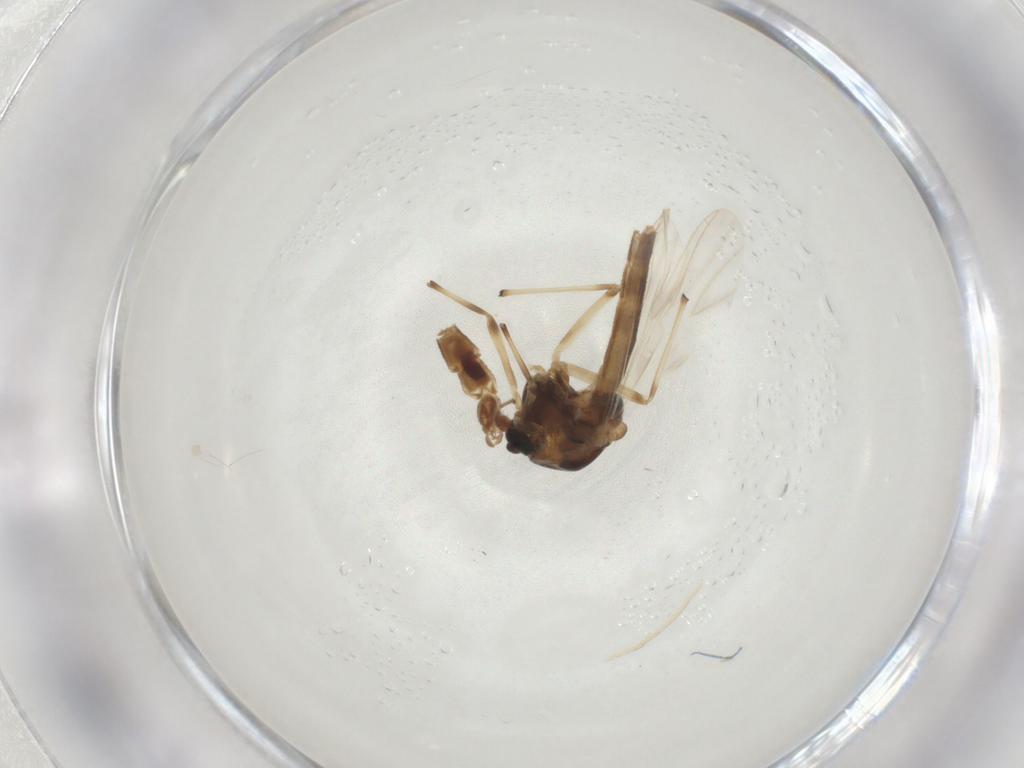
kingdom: Animalia
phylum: Arthropoda
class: Insecta
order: Diptera
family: Chironomidae
